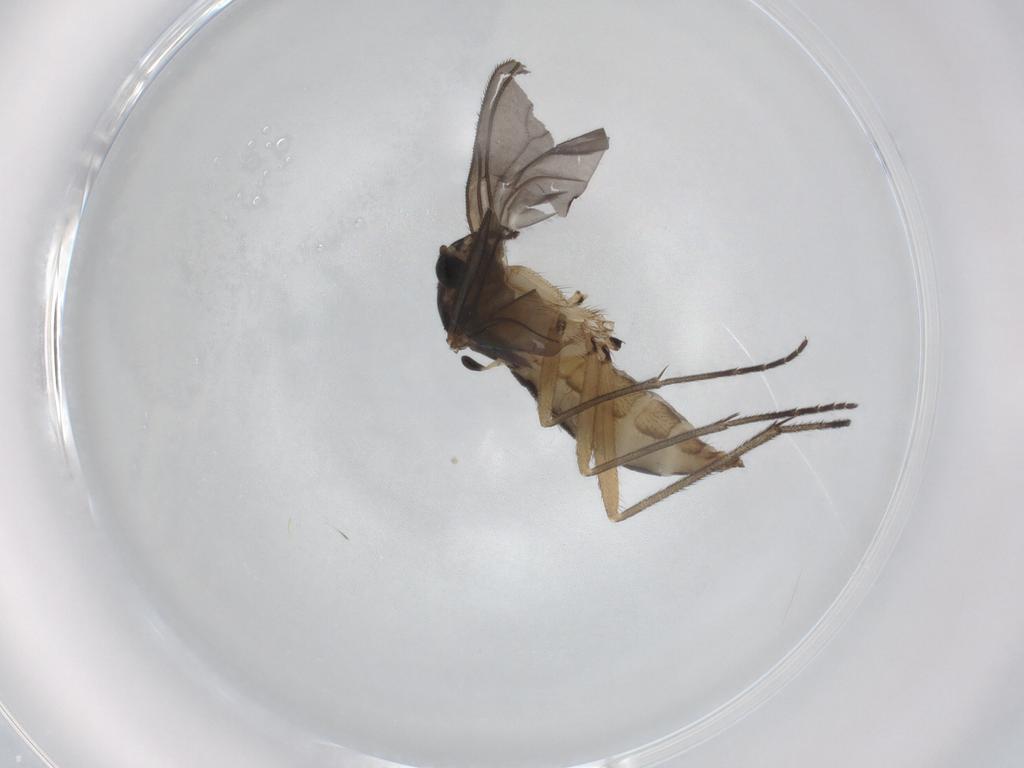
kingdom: Animalia
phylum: Arthropoda
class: Insecta
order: Diptera
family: Sciaridae
